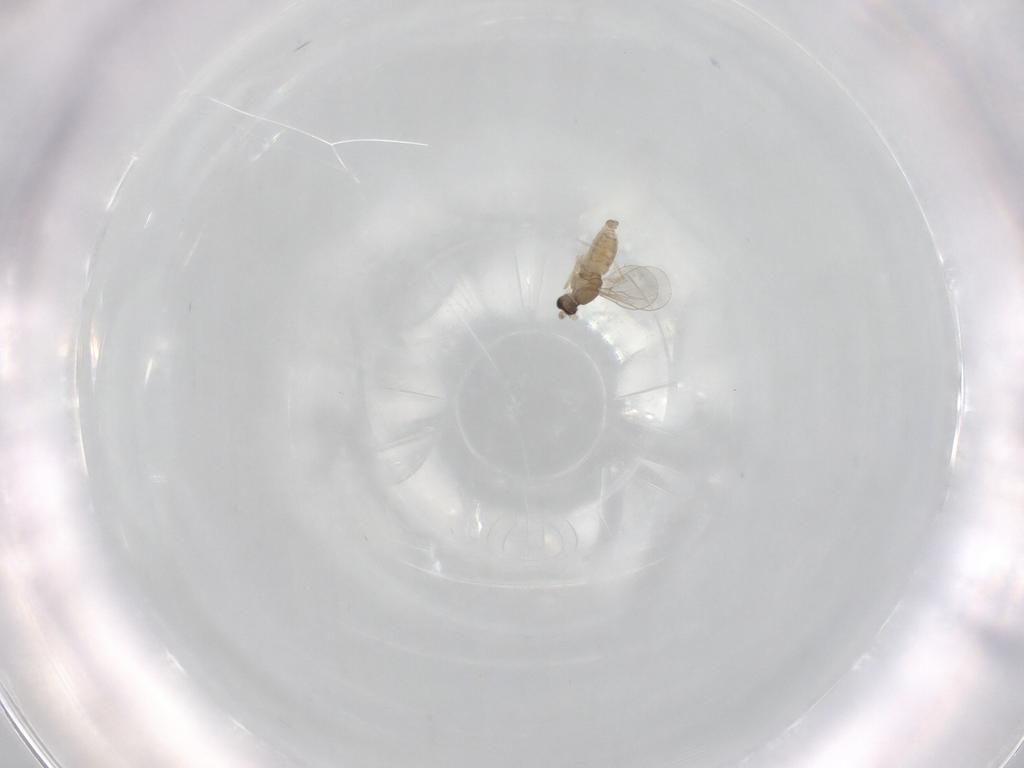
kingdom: Animalia
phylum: Arthropoda
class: Insecta
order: Diptera
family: Cecidomyiidae
